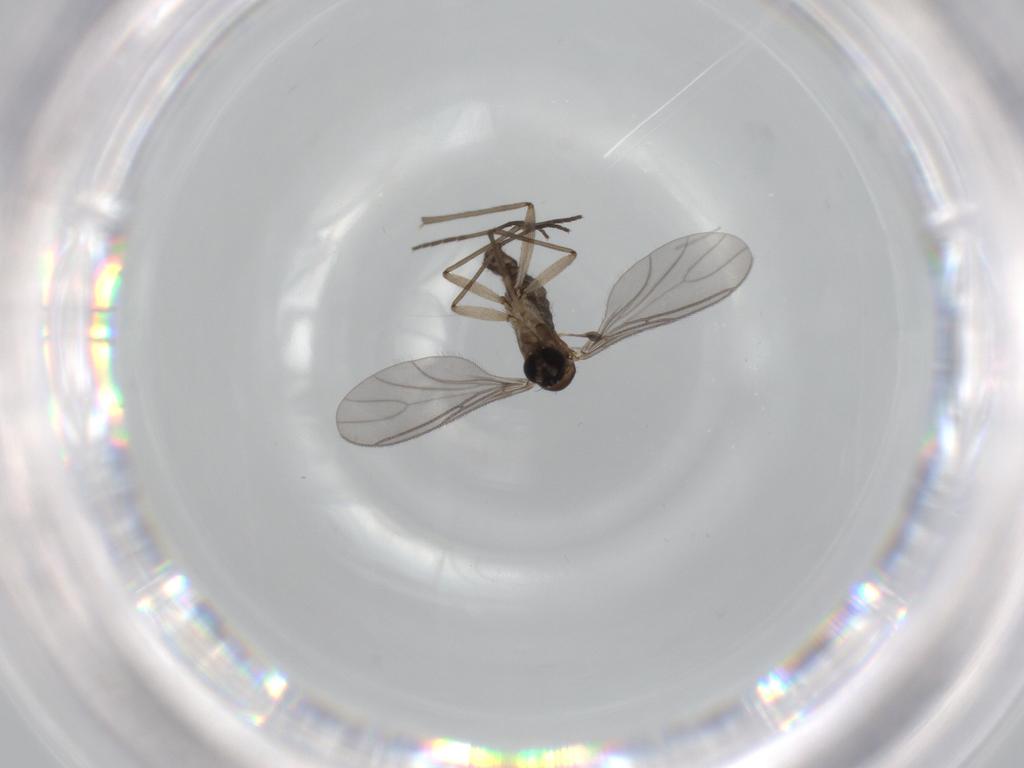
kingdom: Animalia
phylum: Arthropoda
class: Insecta
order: Diptera
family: Sciaridae
